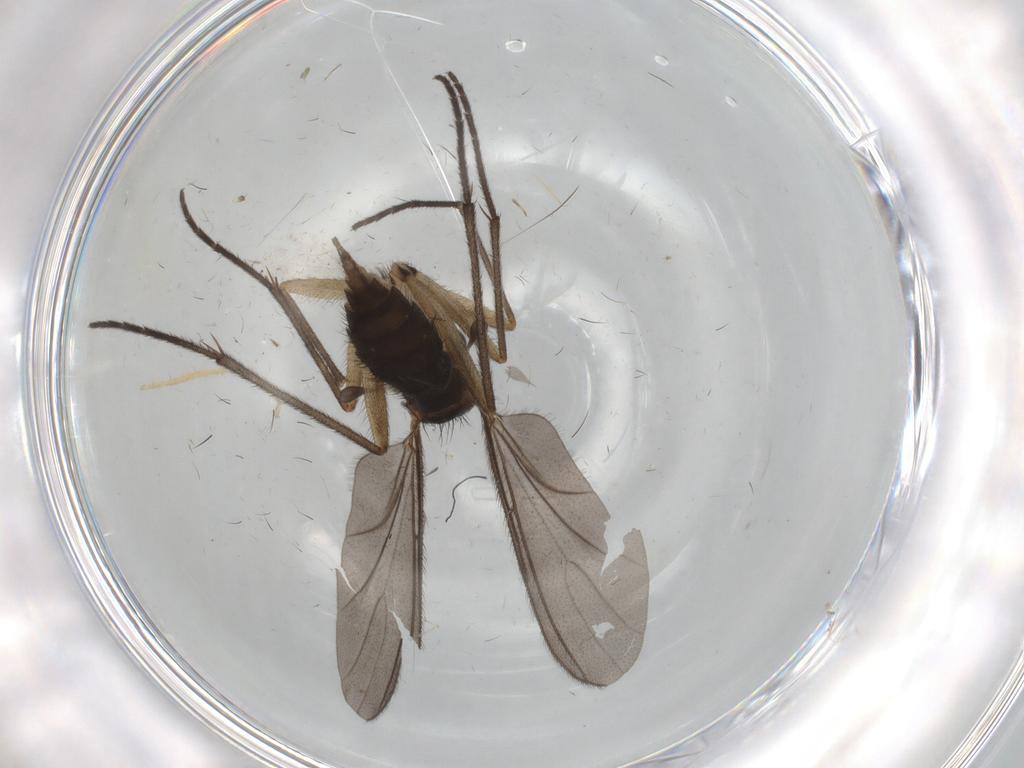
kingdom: Animalia
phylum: Arthropoda
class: Insecta
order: Diptera
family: Sciaridae
